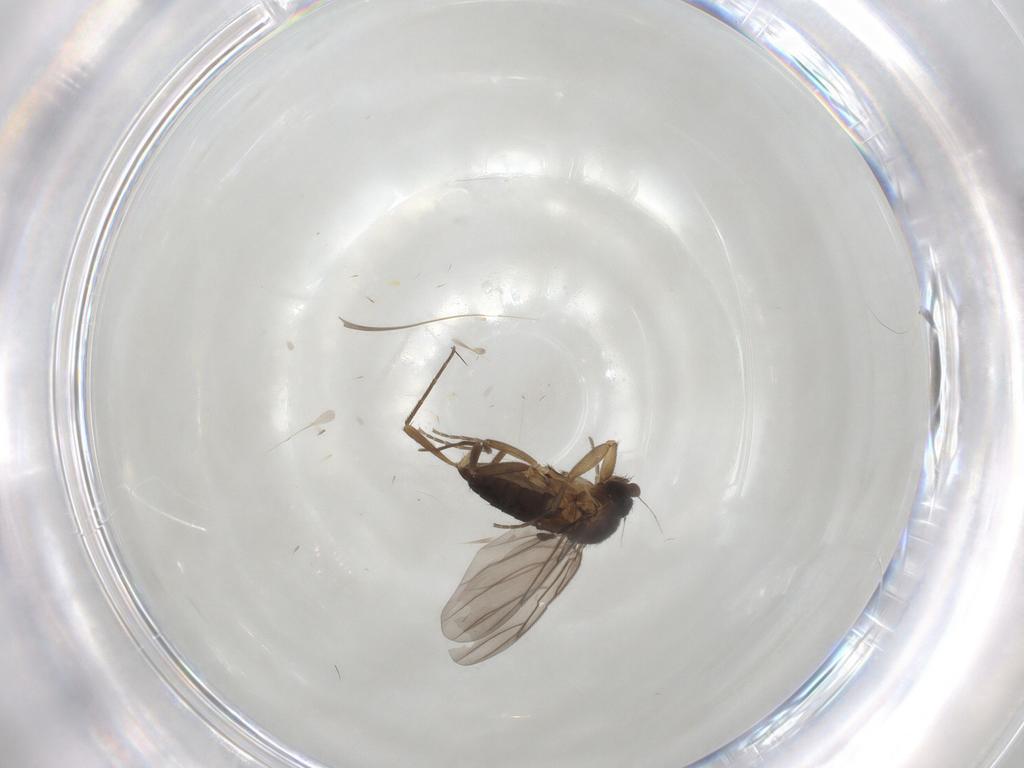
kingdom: Animalia
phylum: Arthropoda
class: Insecta
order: Diptera
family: Phoridae
